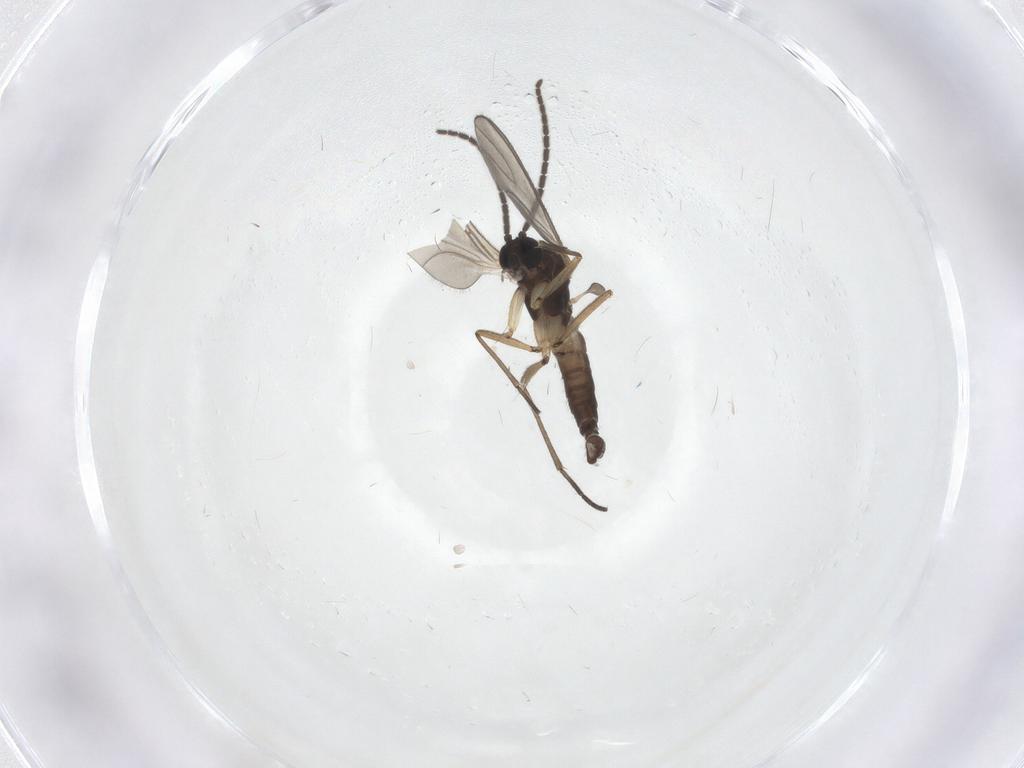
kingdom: Animalia
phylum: Arthropoda
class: Insecta
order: Diptera
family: Sciaridae
